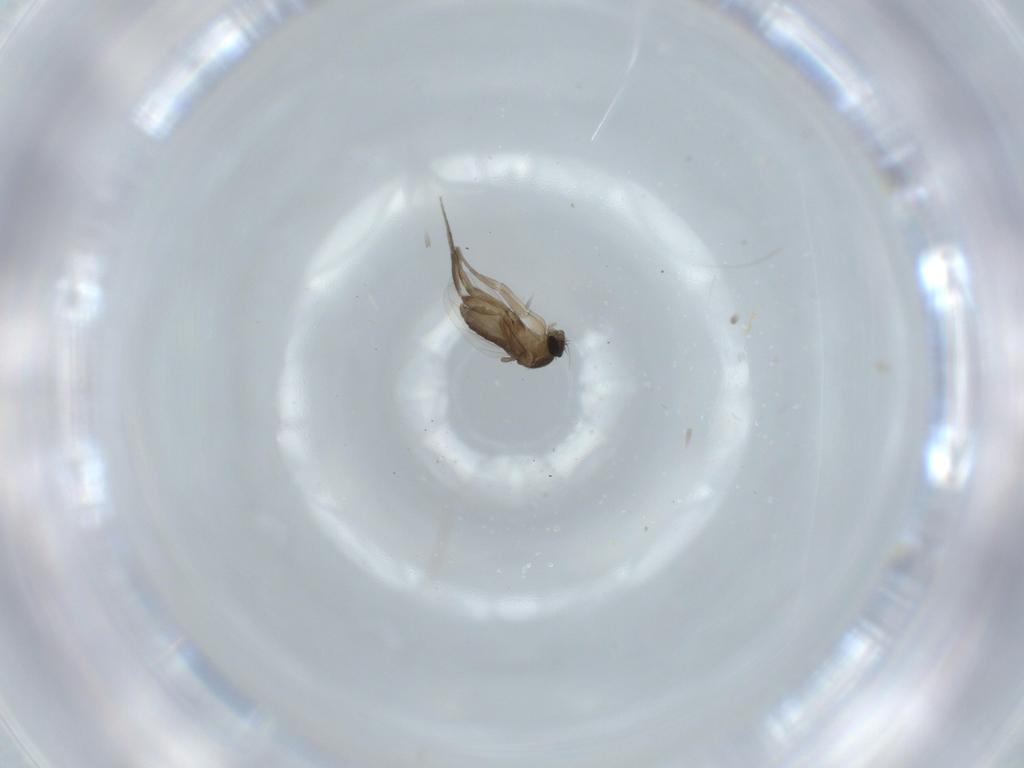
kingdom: Animalia
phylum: Arthropoda
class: Insecta
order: Diptera
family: Phoridae
